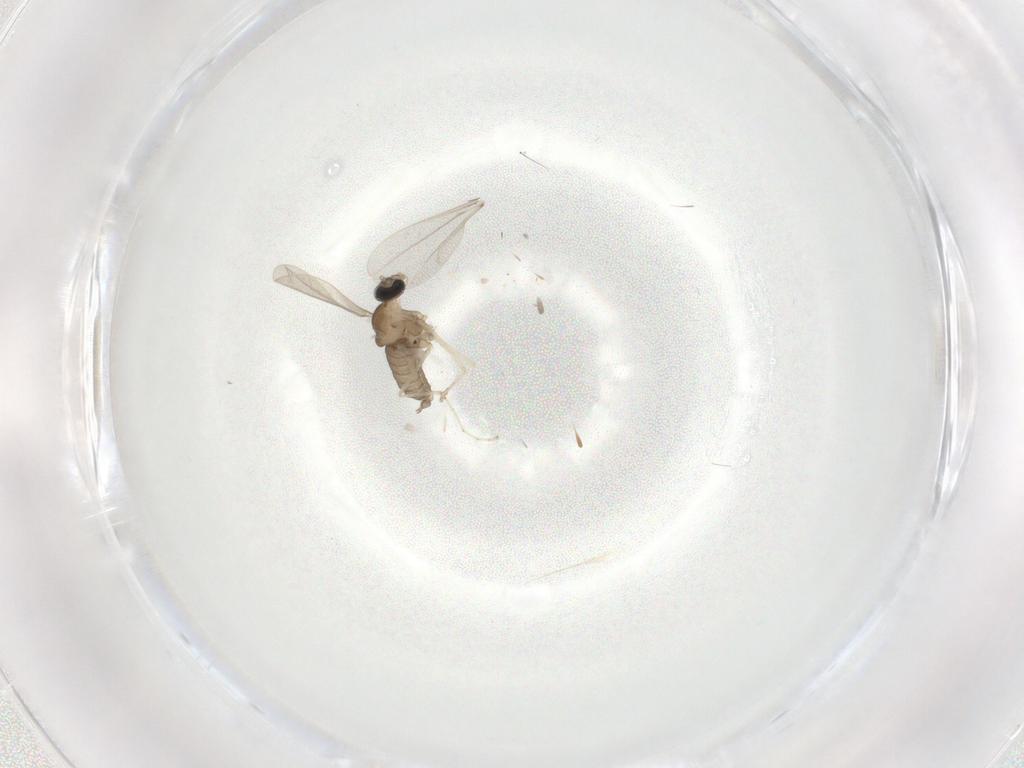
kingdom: Animalia
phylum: Arthropoda
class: Insecta
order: Diptera
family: Cecidomyiidae
